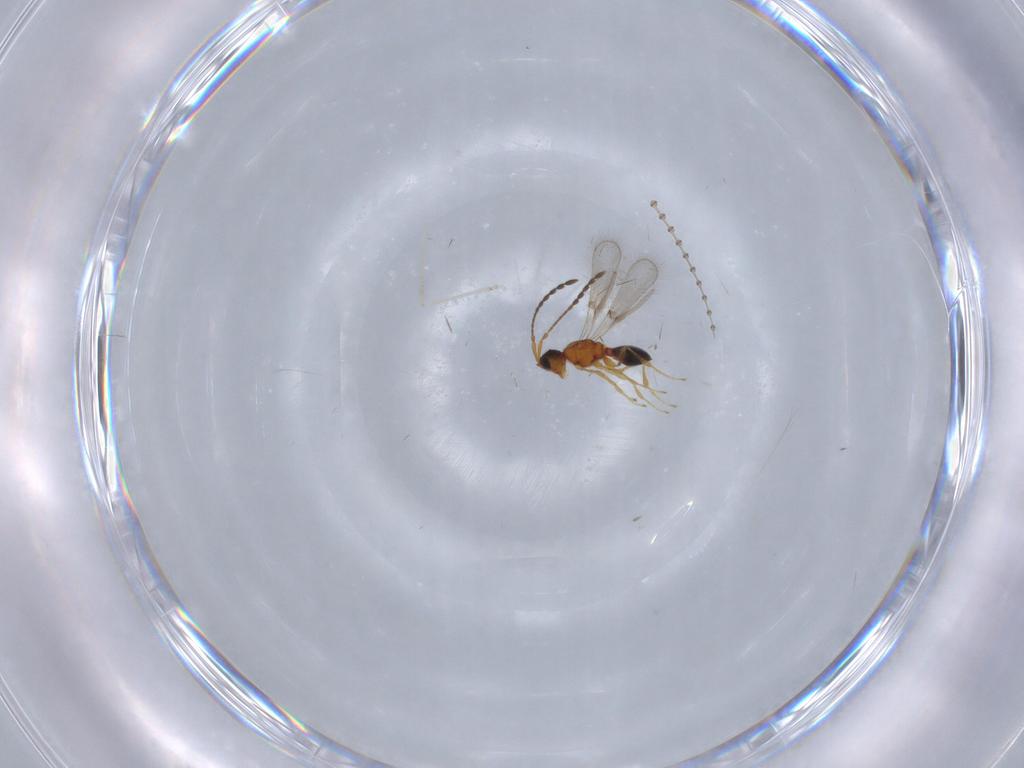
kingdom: Animalia
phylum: Arthropoda
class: Insecta
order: Hymenoptera
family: Diapriidae
